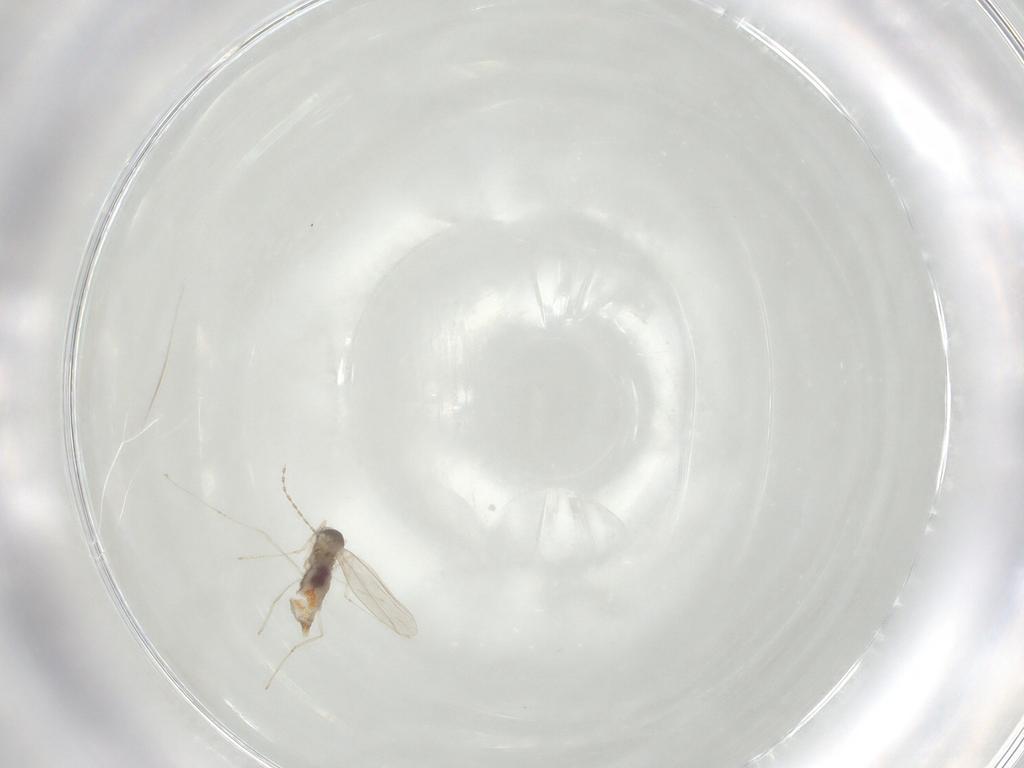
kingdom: Animalia
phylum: Arthropoda
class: Insecta
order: Diptera
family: Cecidomyiidae
